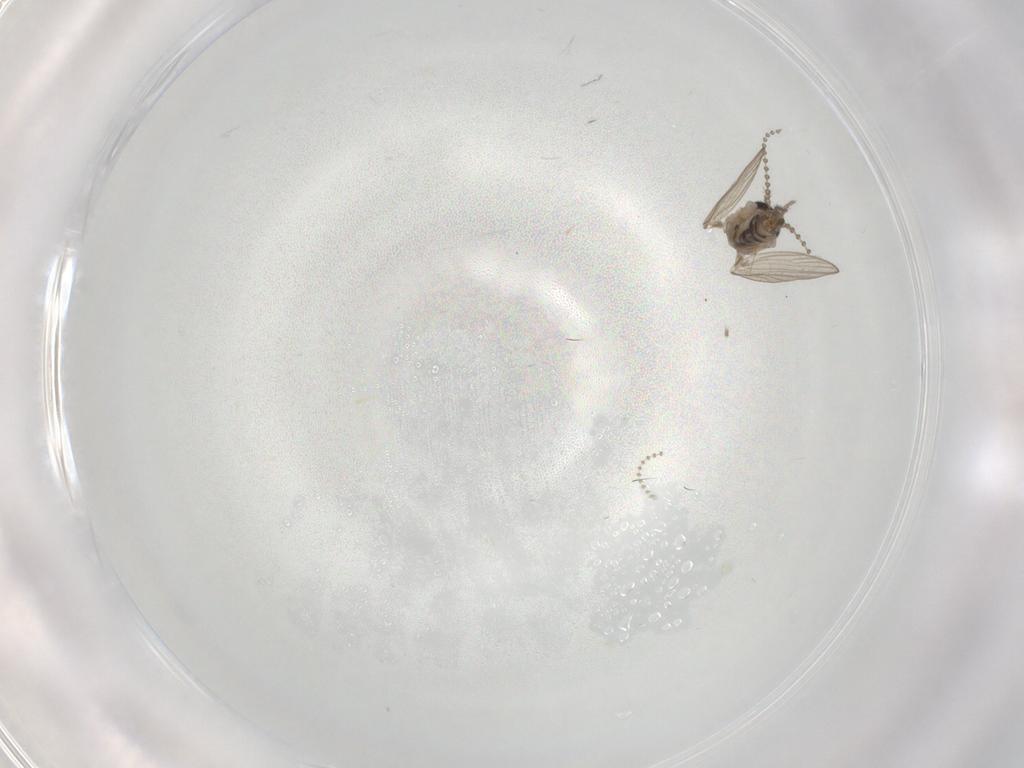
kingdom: Animalia
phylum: Arthropoda
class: Insecta
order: Diptera
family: Psychodidae
